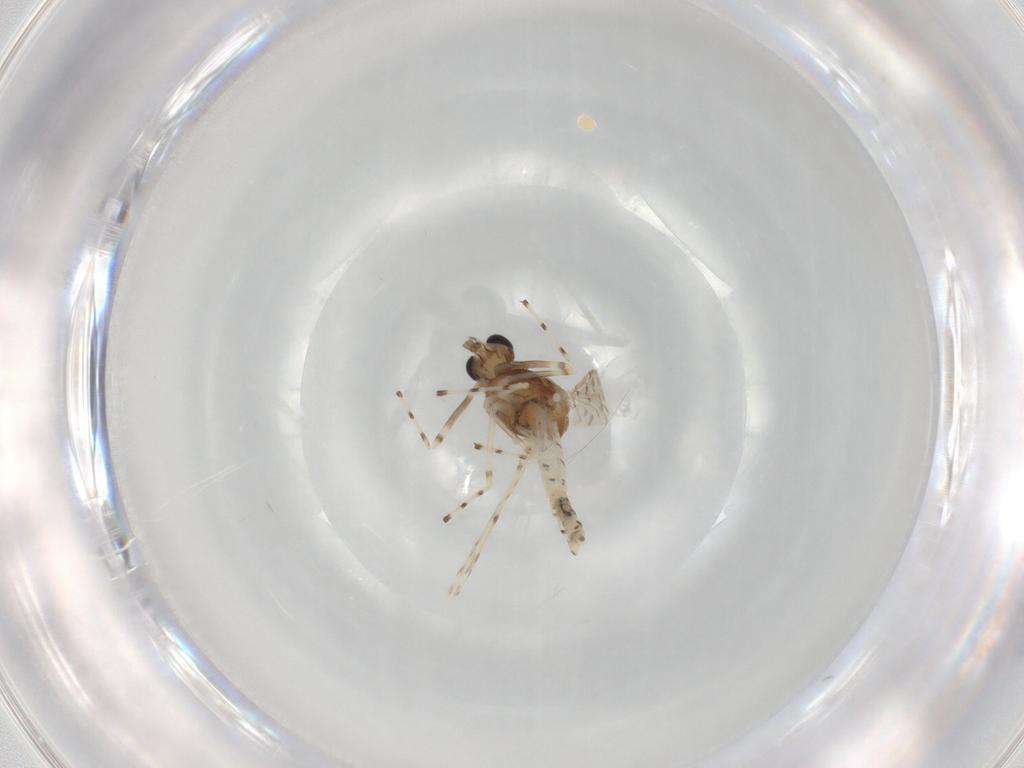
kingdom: Animalia
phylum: Arthropoda
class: Insecta
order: Diptera
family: Chironomidae
